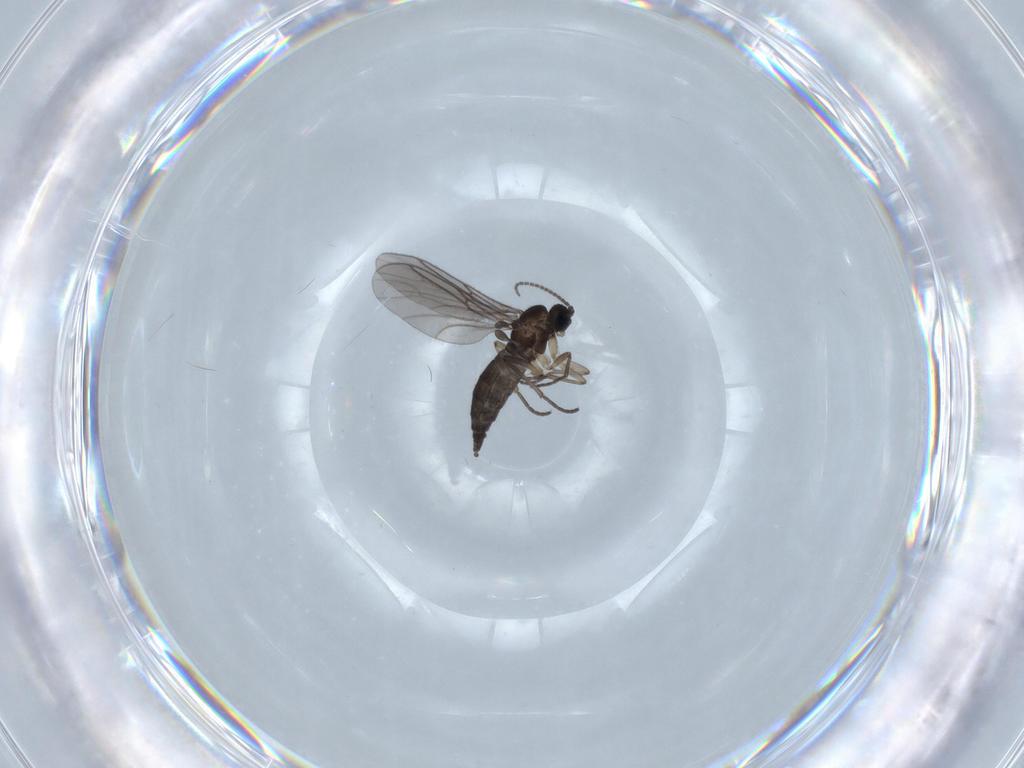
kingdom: Animalia
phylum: Arthropoda
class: Insecta
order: Diptera
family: Sciaridae
